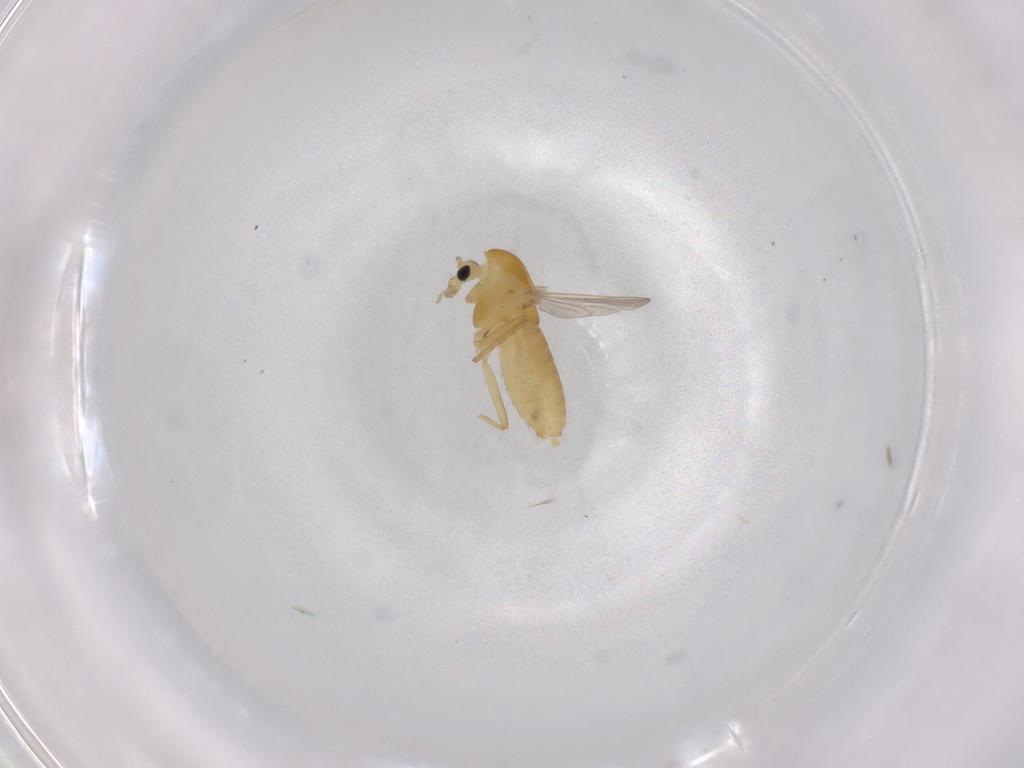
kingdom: Animalia
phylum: Arthropoda
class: Insecta
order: Diptera
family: Chironomidae
